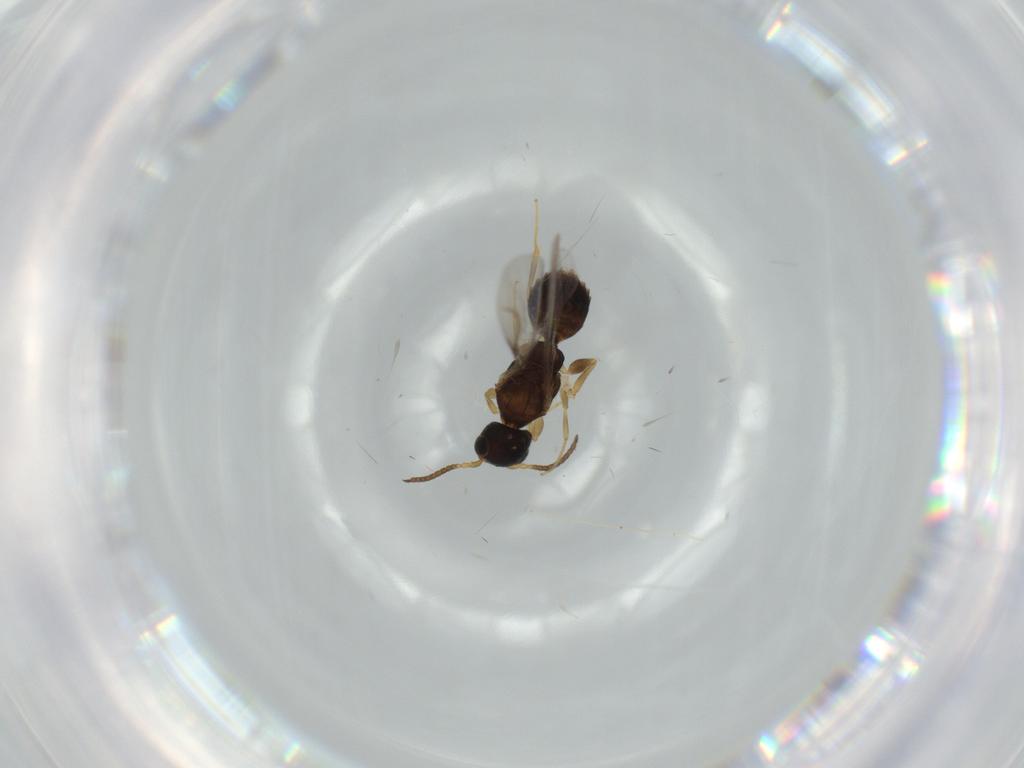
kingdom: Animalia
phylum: Arthropoda
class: Insecta
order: Hymenoptera
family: Bethylidae
